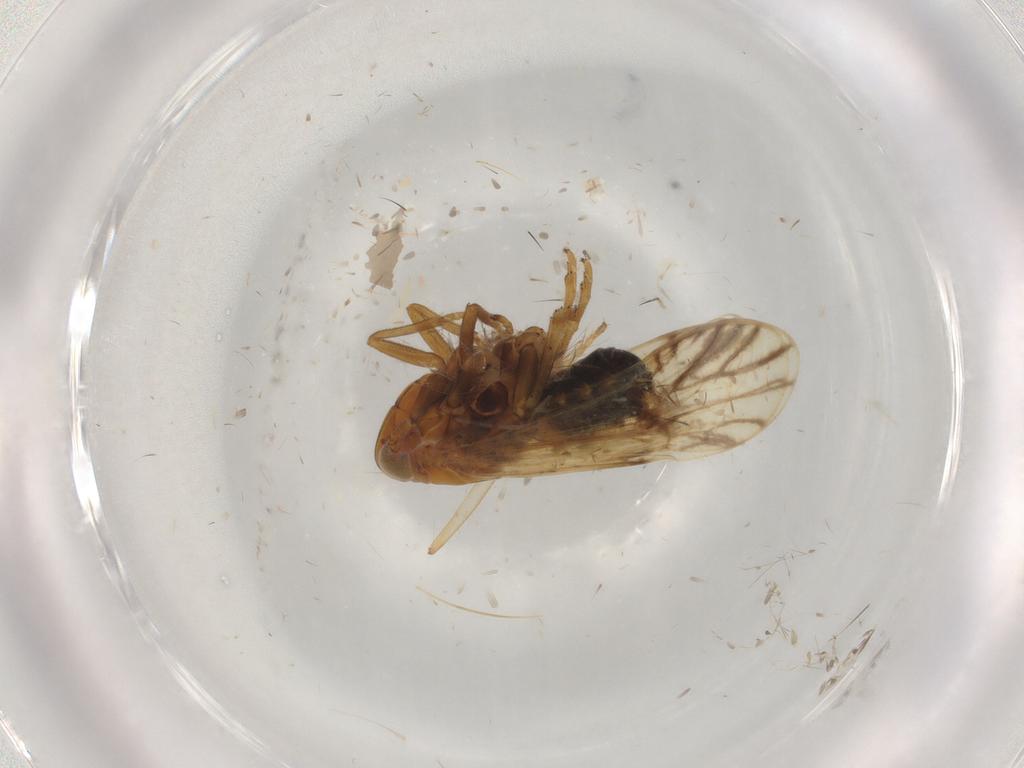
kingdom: Animalia
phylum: Arthropoda
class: Insecta
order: Hemiptera
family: Delphacidae
